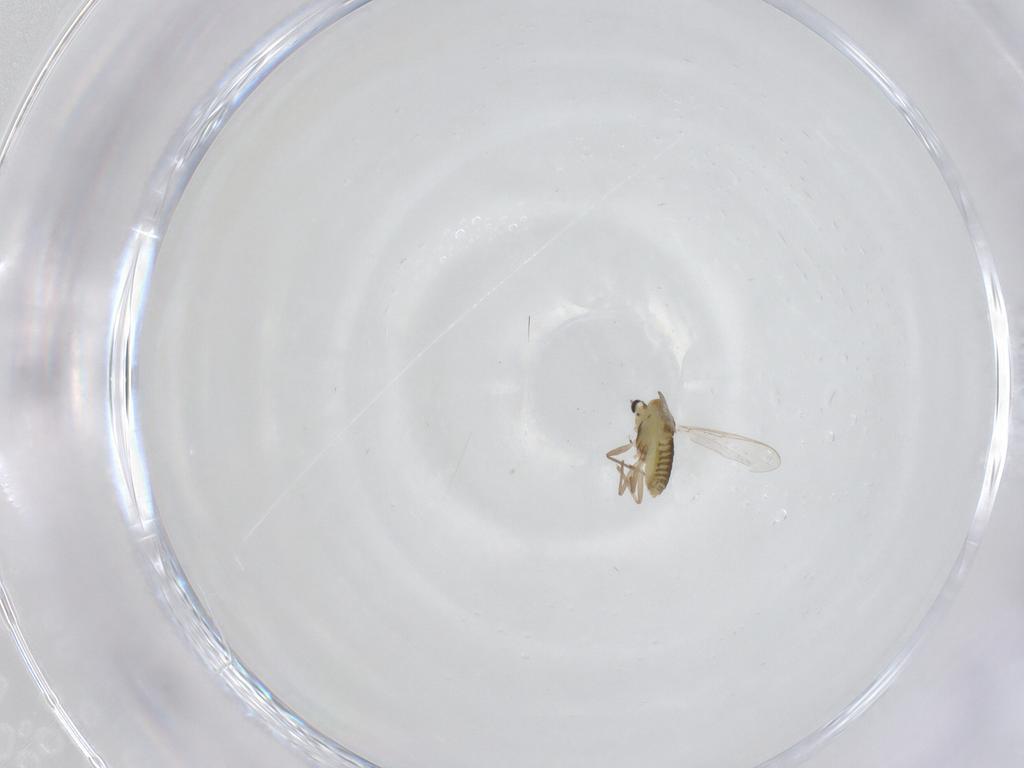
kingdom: Animalia
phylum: Arthropoda
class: Insecta
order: Diptera
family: Chironomidae
